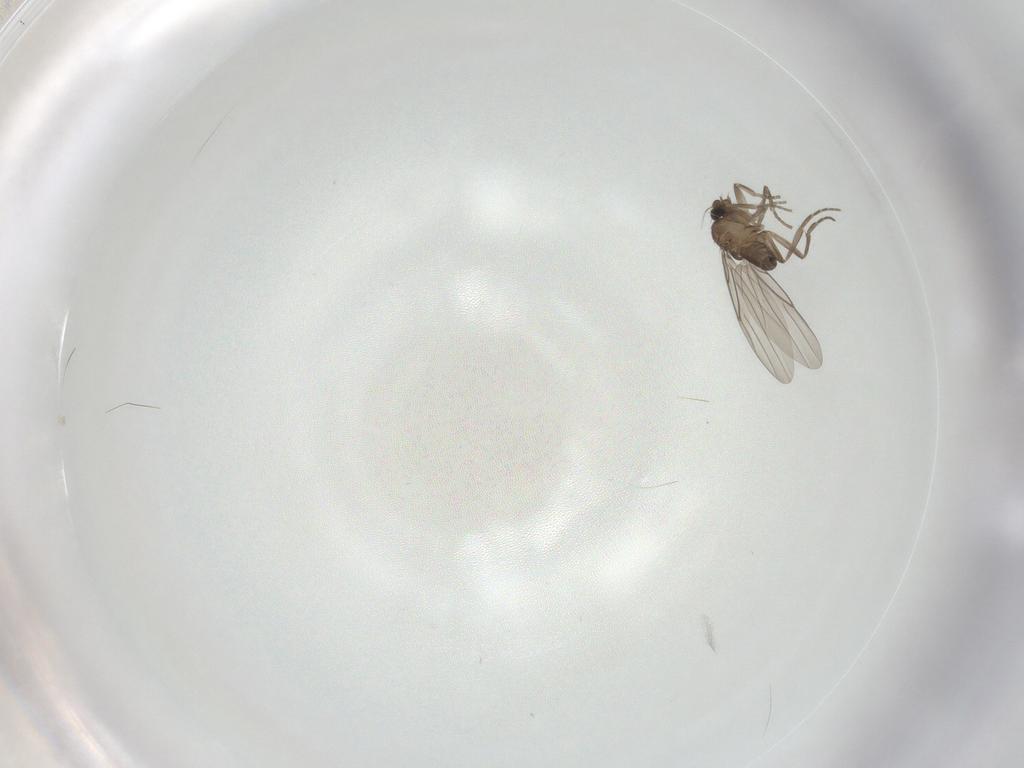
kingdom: Animalia
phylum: Arthropoda
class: Insecta
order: Diptera
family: Phoridae
